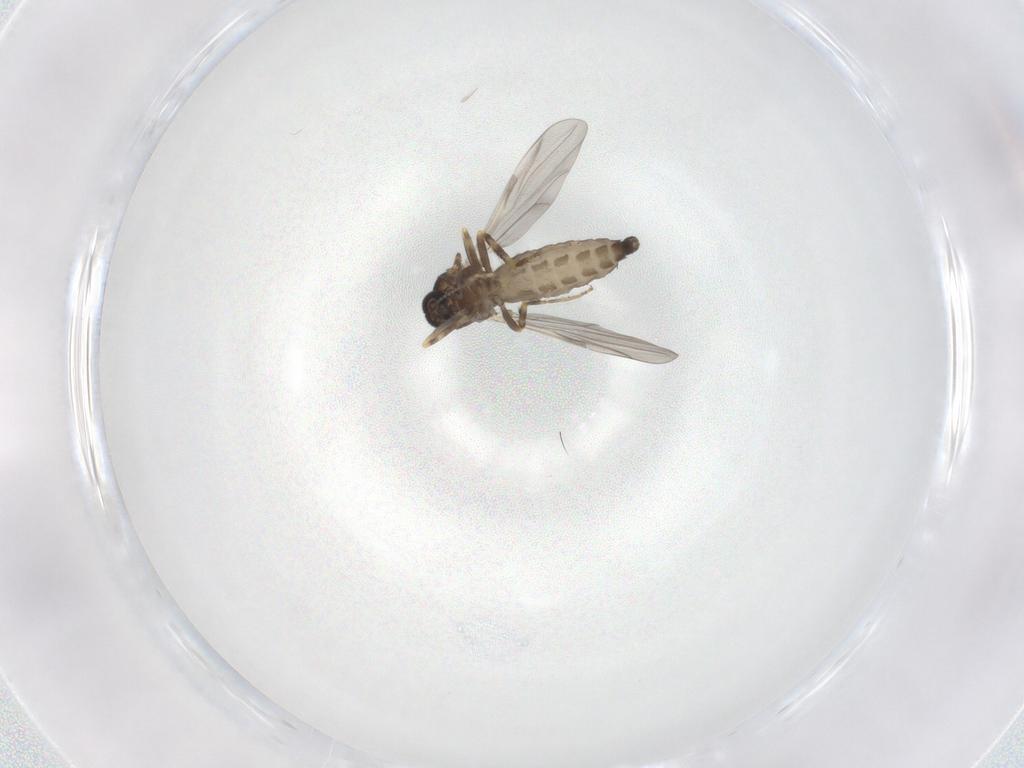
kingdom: Animalia
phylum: Arthropoda
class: Insecta
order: Diptera
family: Ceratopogonidae
